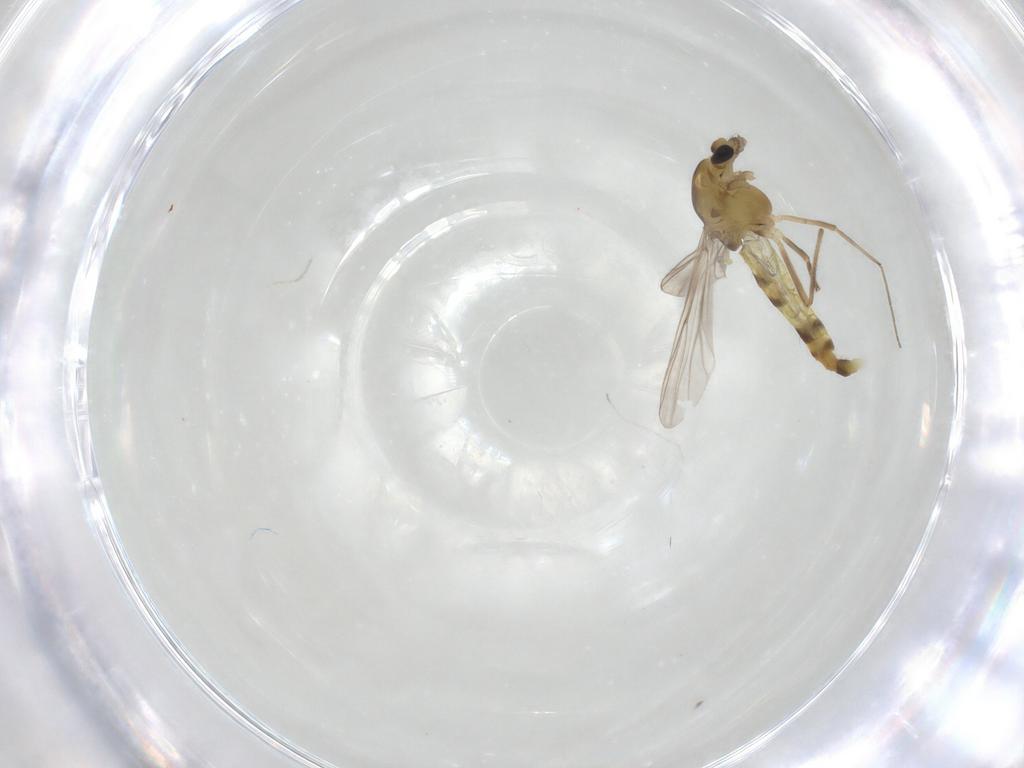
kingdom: Animalia
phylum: Arthropoda
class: Insecta
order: Diptera
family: Chironomidae
